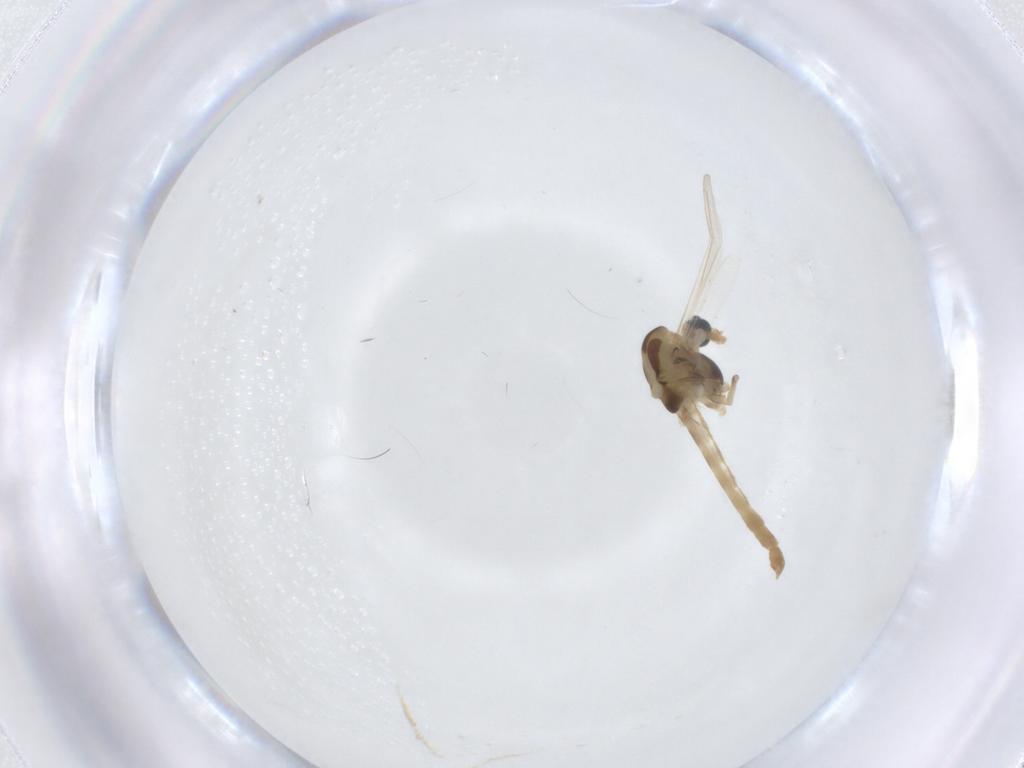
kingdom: Animalia
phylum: Arthropoda
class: Insecta
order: Diptera
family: Chironomidae
